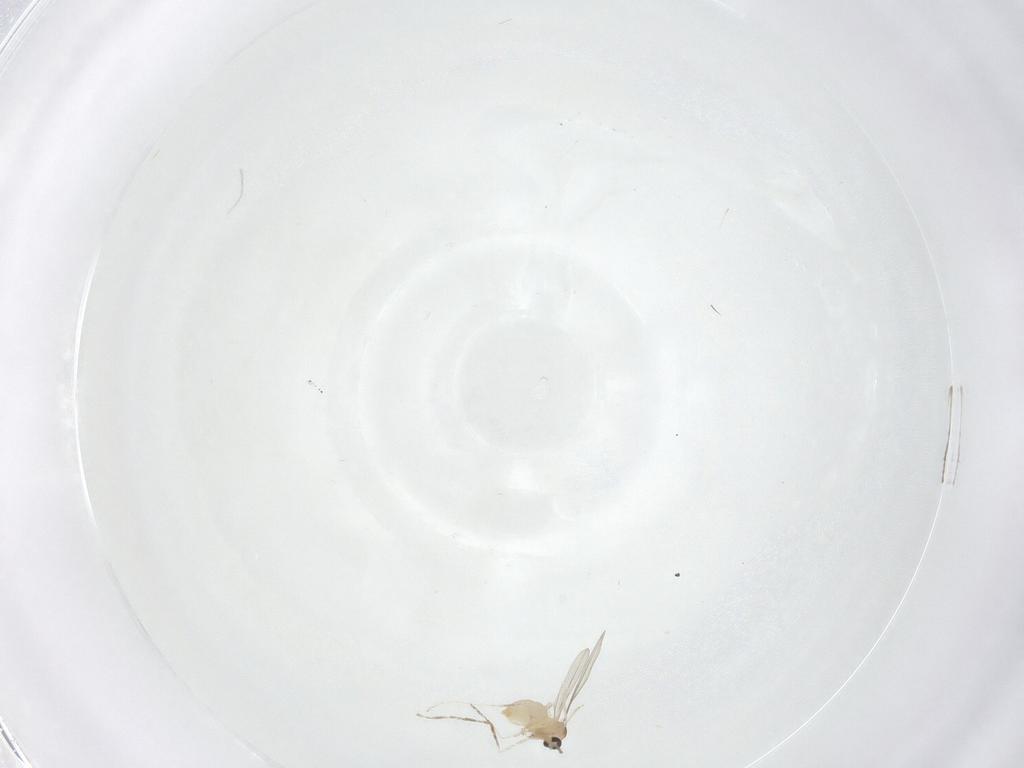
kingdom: Animalia
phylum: Arthropoda
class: Insecta
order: Diptera
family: Cecidomyiidae
